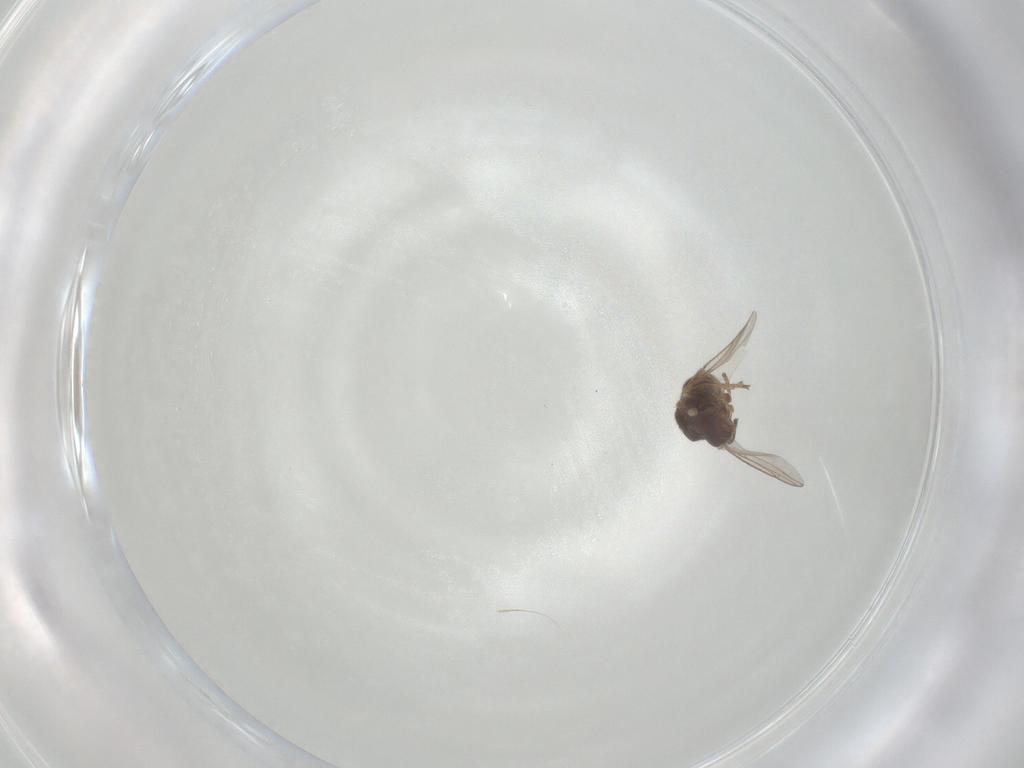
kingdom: Animalia
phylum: Arthropoda
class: Insecta
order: Diptera
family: Chloropidae
